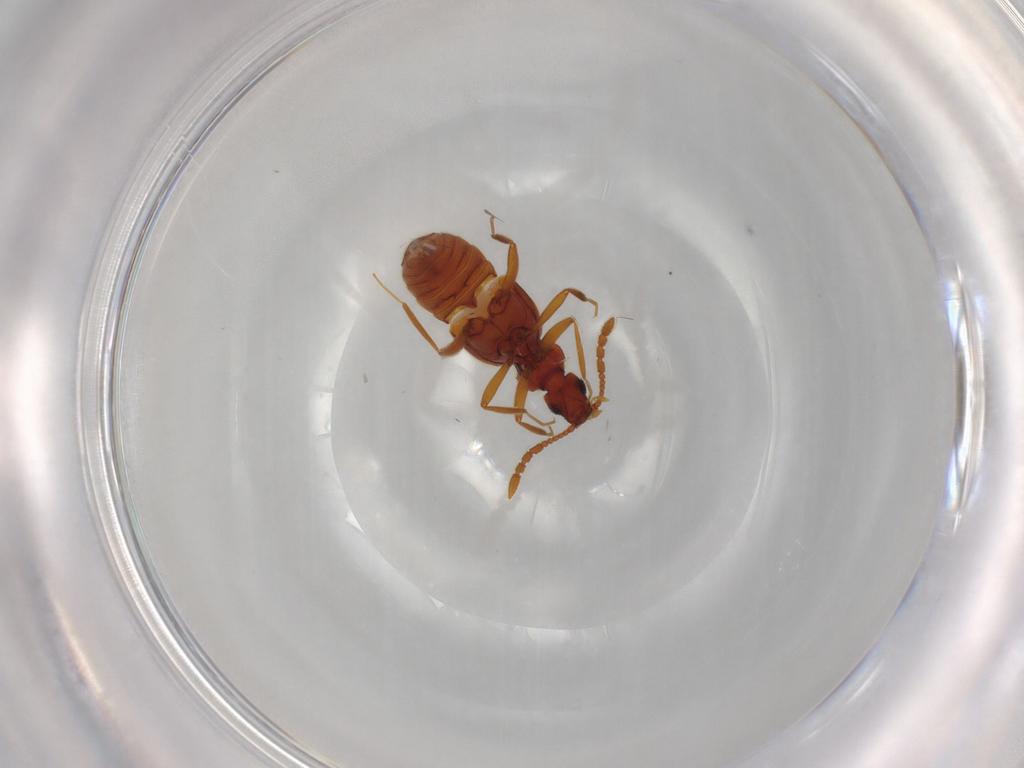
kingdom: Animalia
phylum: Arthropoda
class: Insecta
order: Coleoptera
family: Staphylinidae
